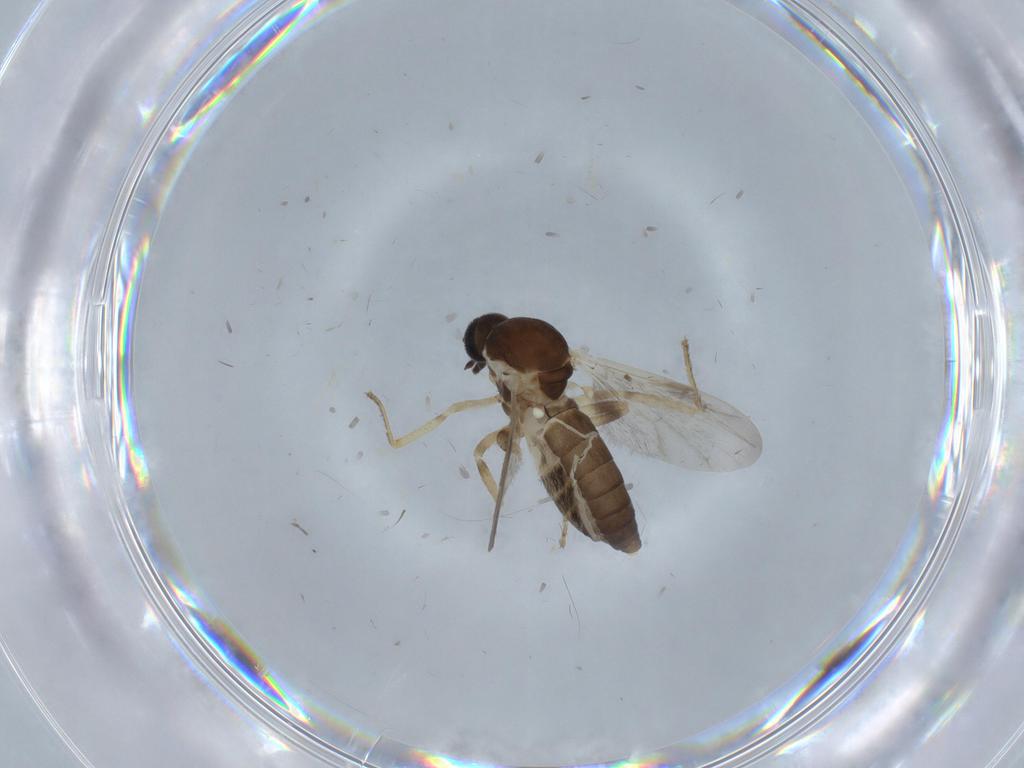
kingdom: Animalia
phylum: Arthropoda
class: Insecta
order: Diptera
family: Ceratopogonidae
